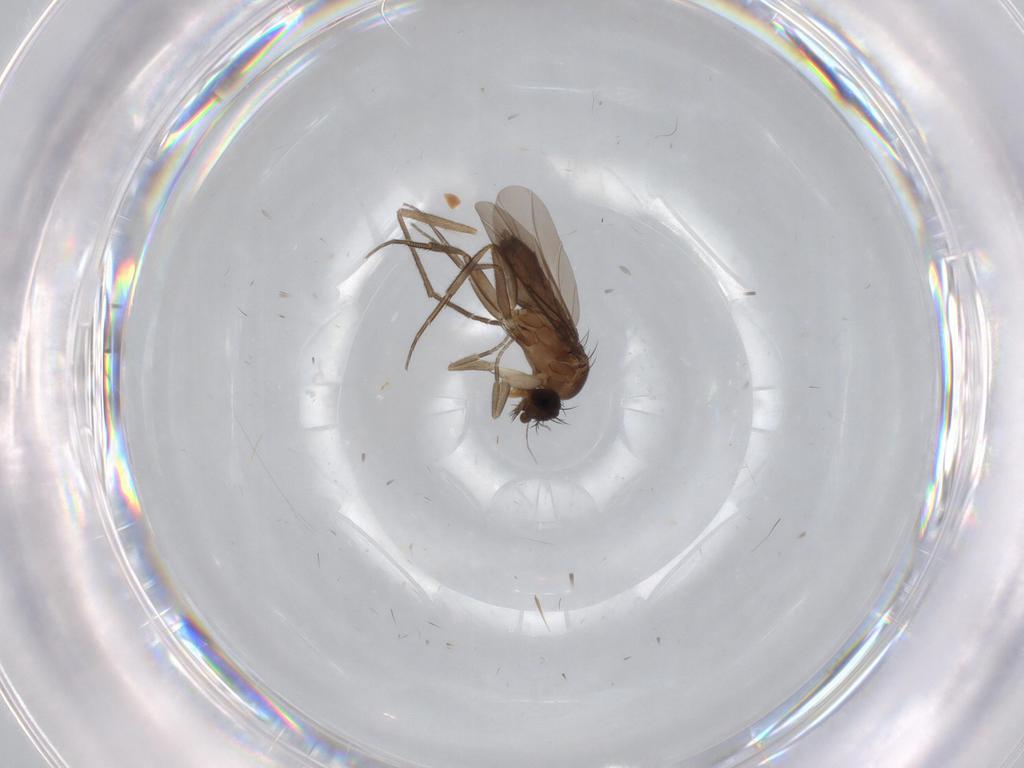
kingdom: Animalia
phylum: Arthropoda
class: Insecta
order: Diptera
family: Phoridae
